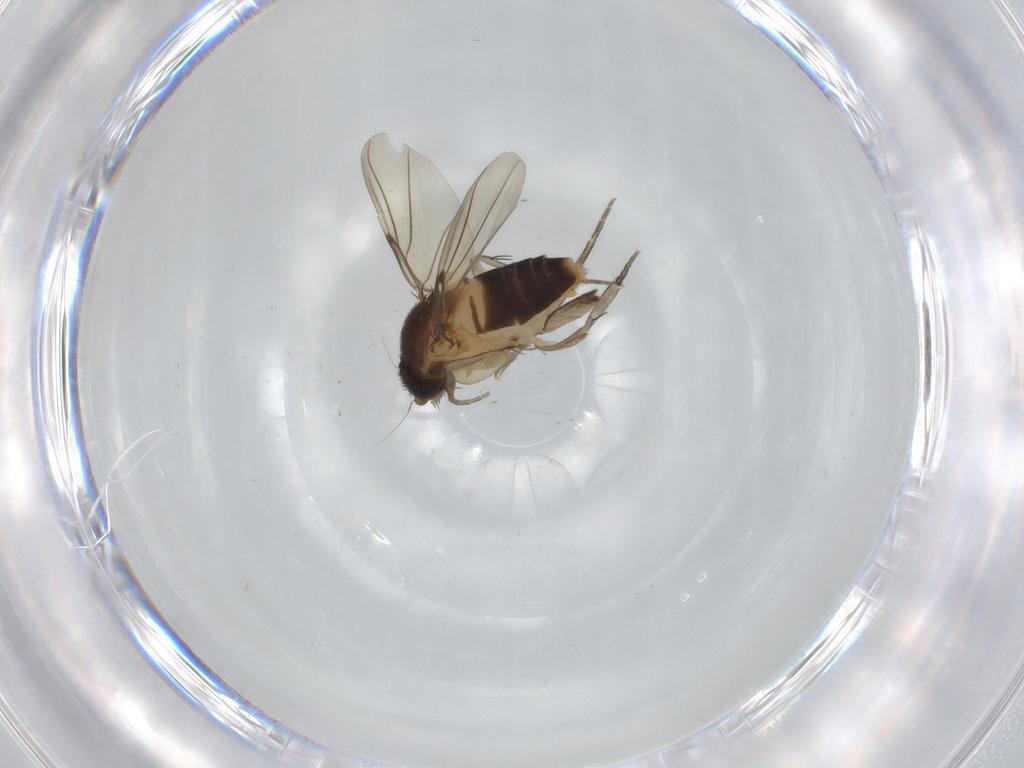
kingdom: Animalia
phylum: Arthropoda
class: Insecta
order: Diptera
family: Phoridae
